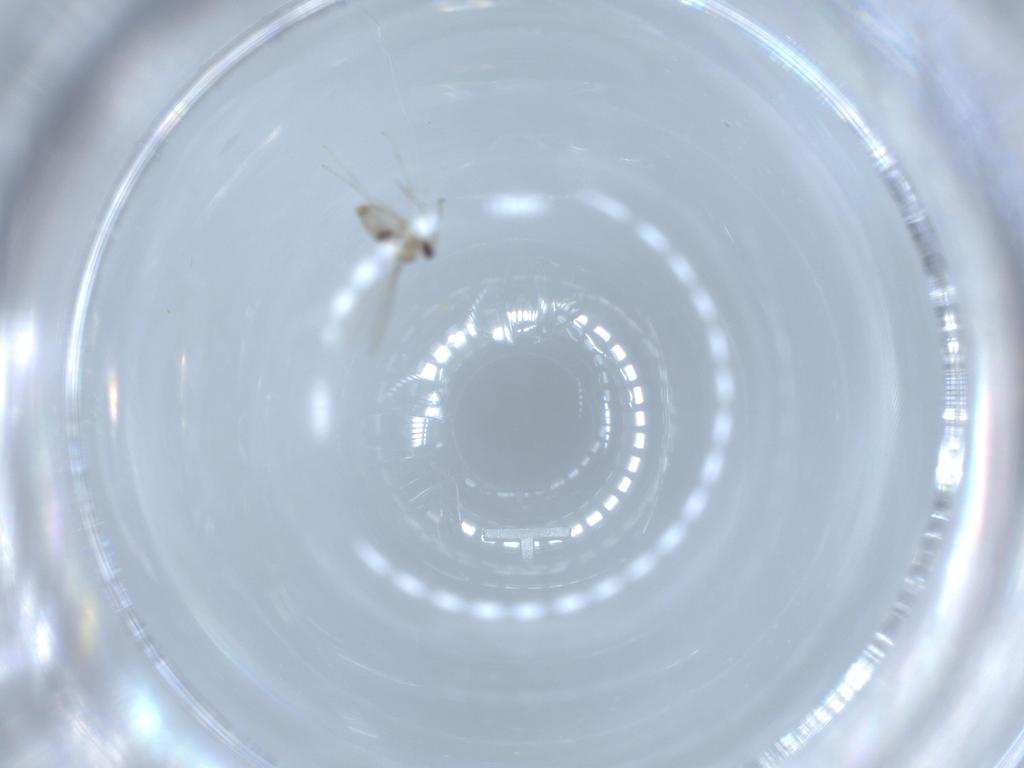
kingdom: Animalia
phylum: Arthropoda
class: Insecta
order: Diptera
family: Cecidomyiidae
